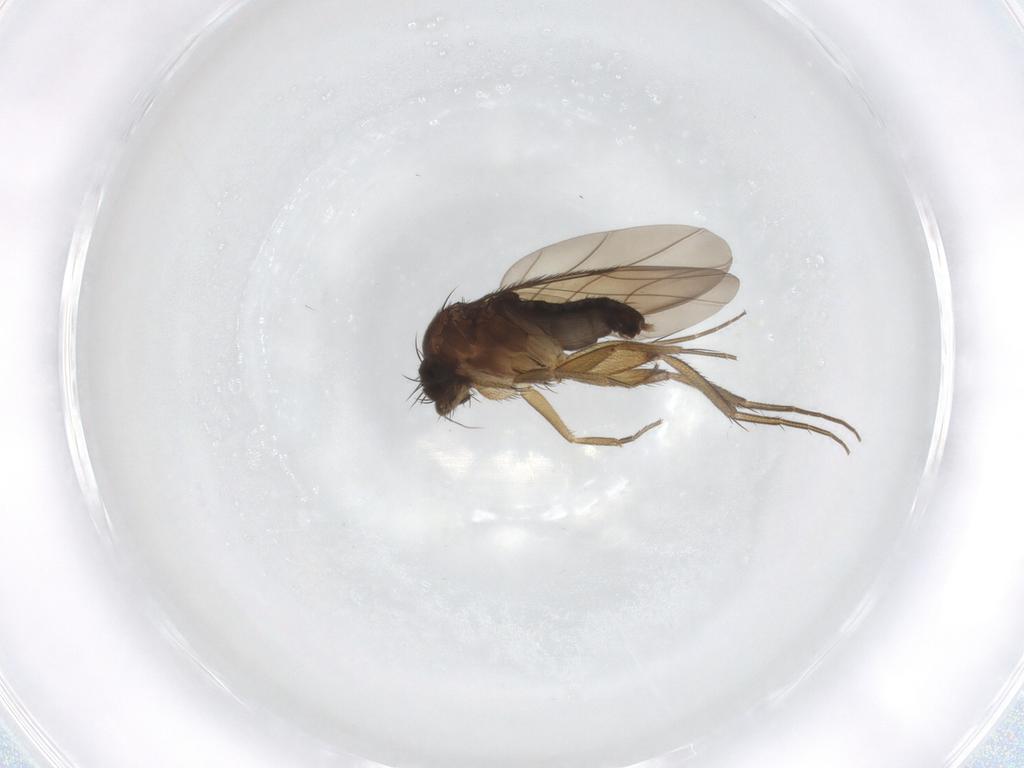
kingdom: Animalia
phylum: Arthropoda
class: Insecta
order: Diptera
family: Phoridae
